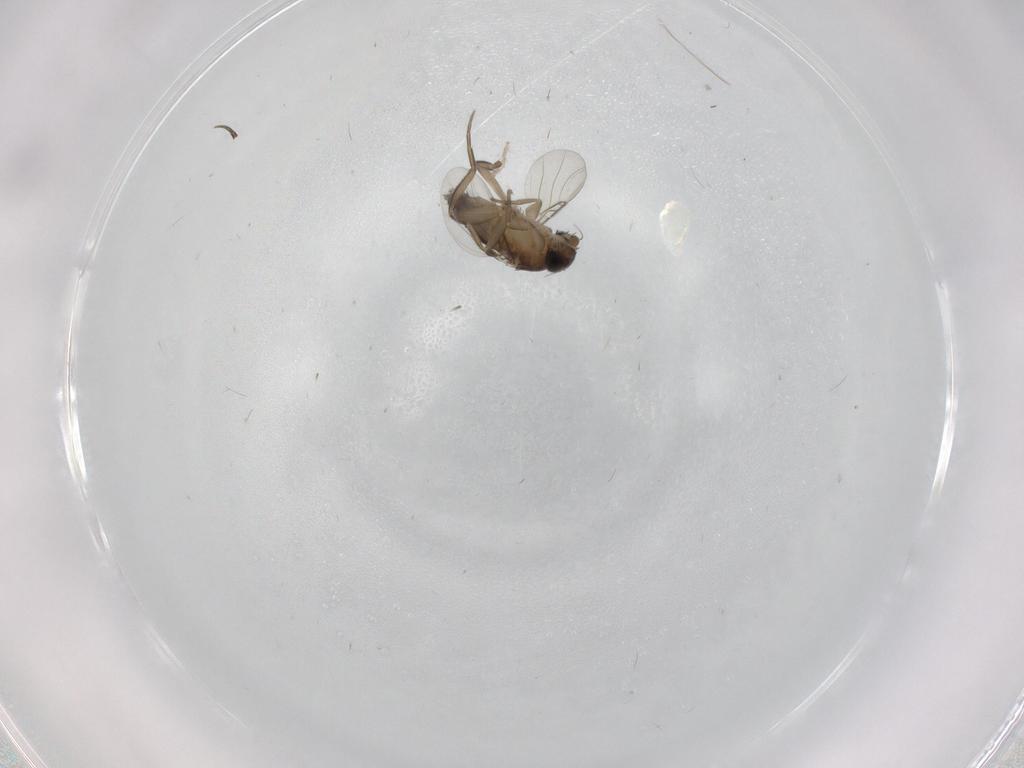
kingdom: Animalia
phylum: Arthropoda
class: Insecta
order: Diptera
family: Phoridae
